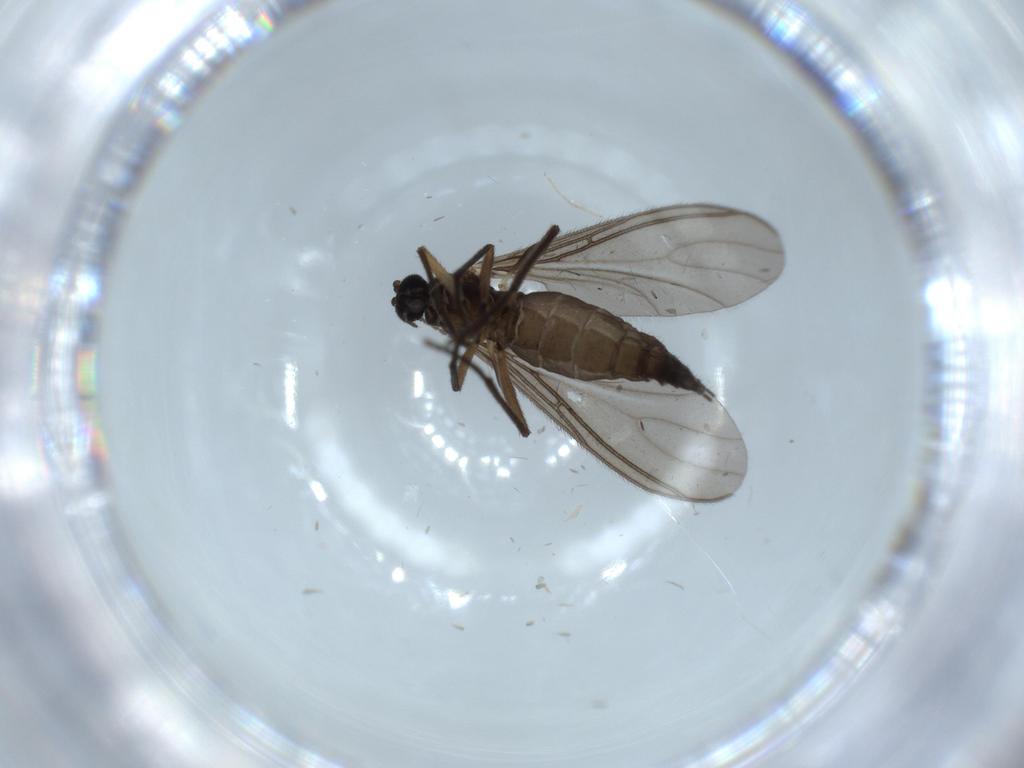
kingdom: Animalia
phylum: Arthropoda
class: Insecta
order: Diptera
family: Sciaridae
